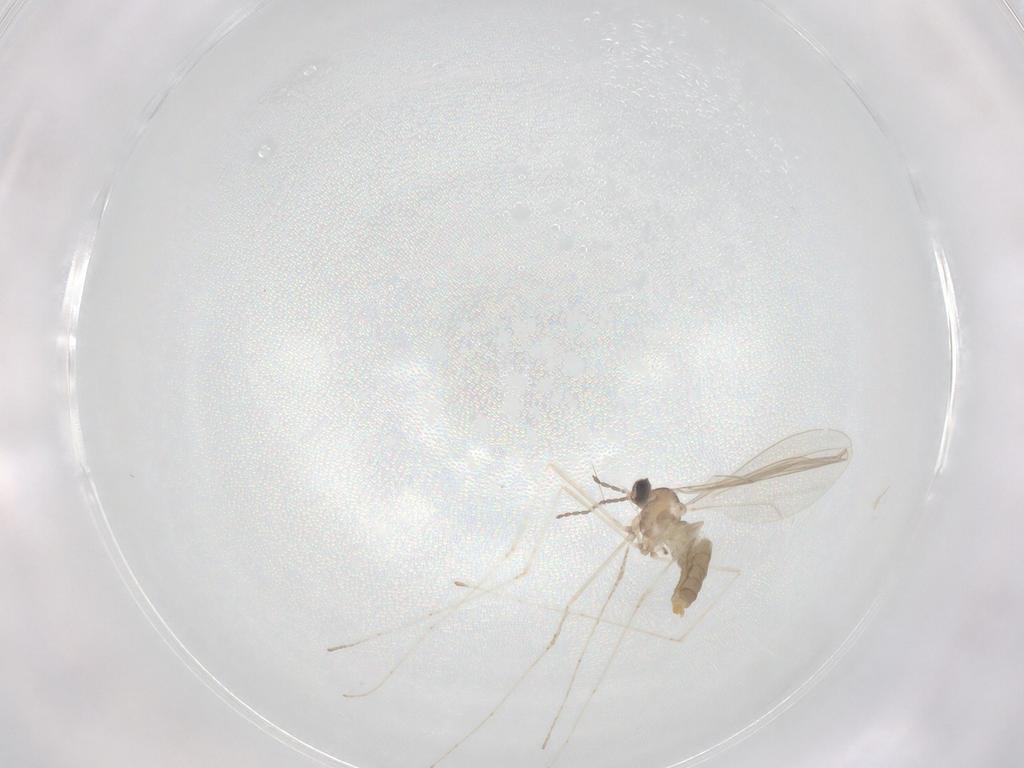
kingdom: Animalia
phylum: Arthropoda
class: Insecta
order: Diptera
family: Cecidomyiidae
